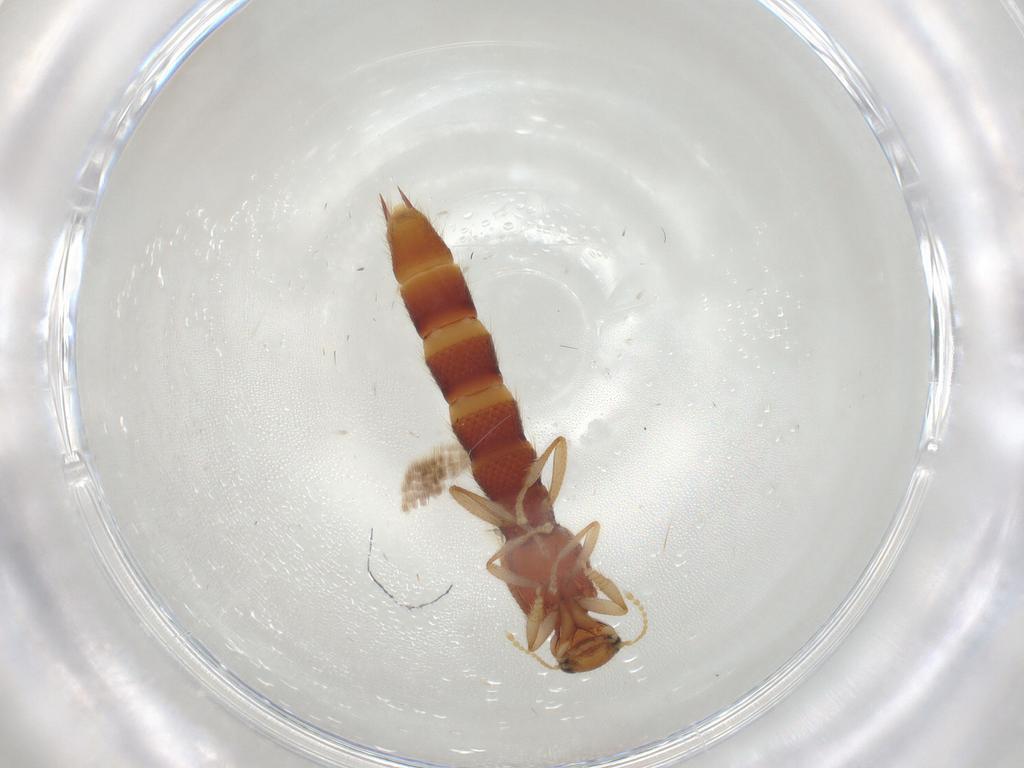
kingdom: Animalia
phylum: Arthropoda
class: Insecta
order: Coleoptera
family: Staphylinidae
